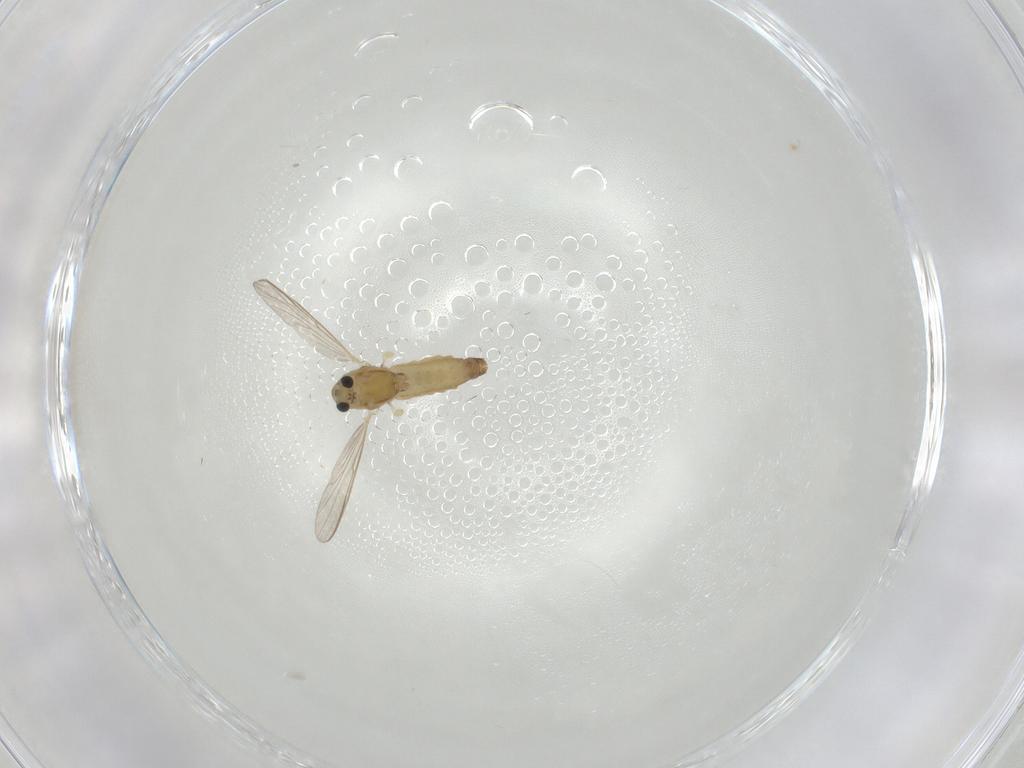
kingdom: Animalia
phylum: Arthropoda
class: Insecta
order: Diptera
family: Chironomidae
